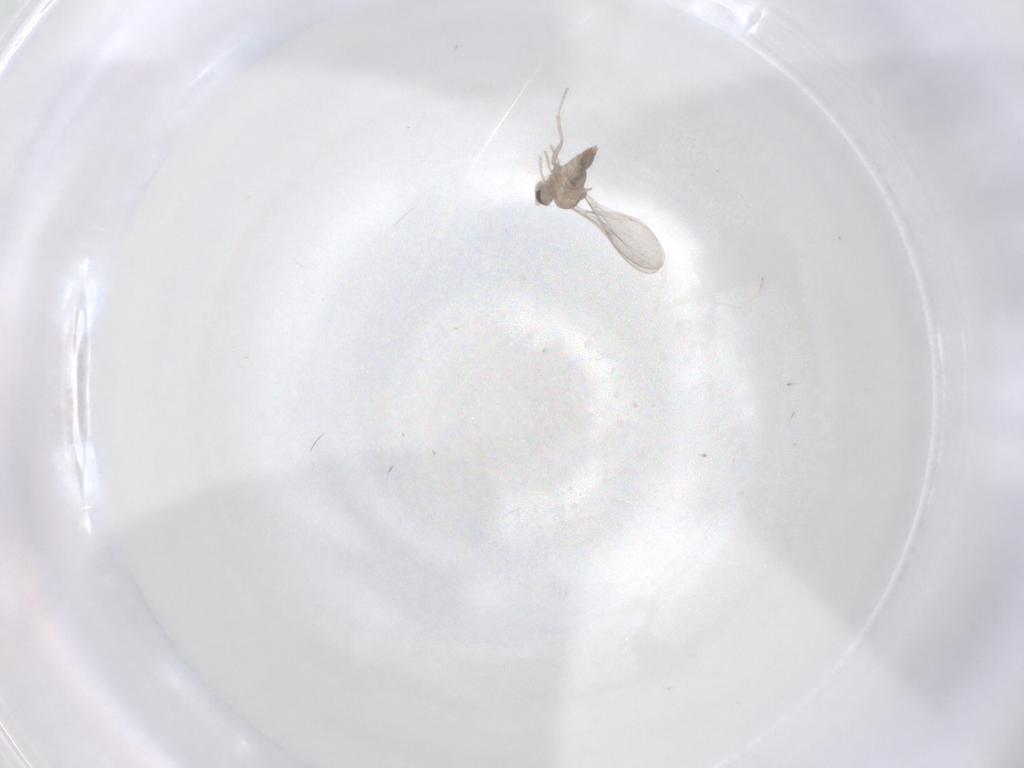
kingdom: Animalia
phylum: Arthropoda
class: Insecta
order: Diptera
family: Cecidomyiidae
